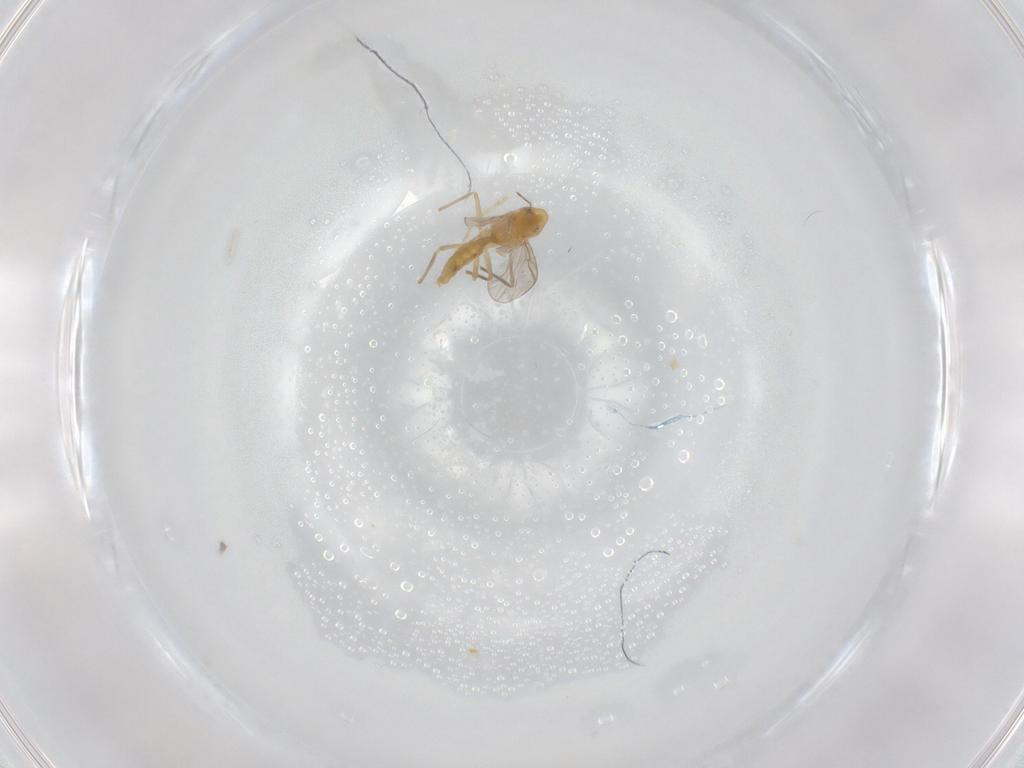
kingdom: Animalia
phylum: Arthropoda
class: Insecta
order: Diptera
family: Chironomidae
